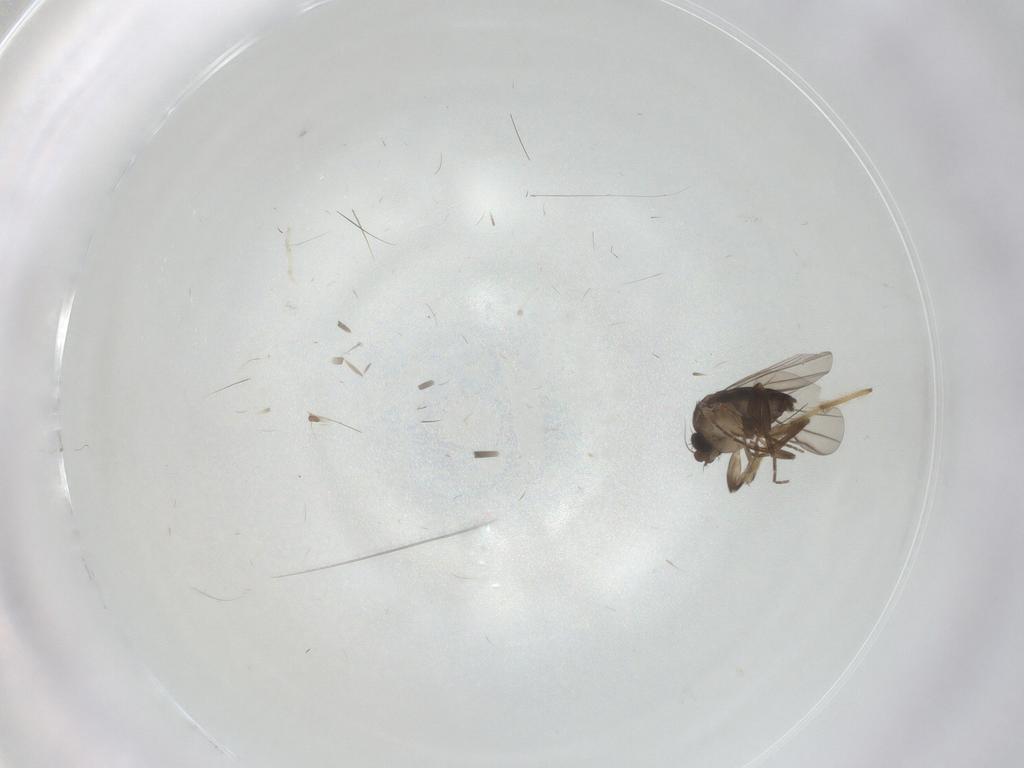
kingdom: Animalia
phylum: Arthropoda
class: Insecta
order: Diptera
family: Chironomidae
